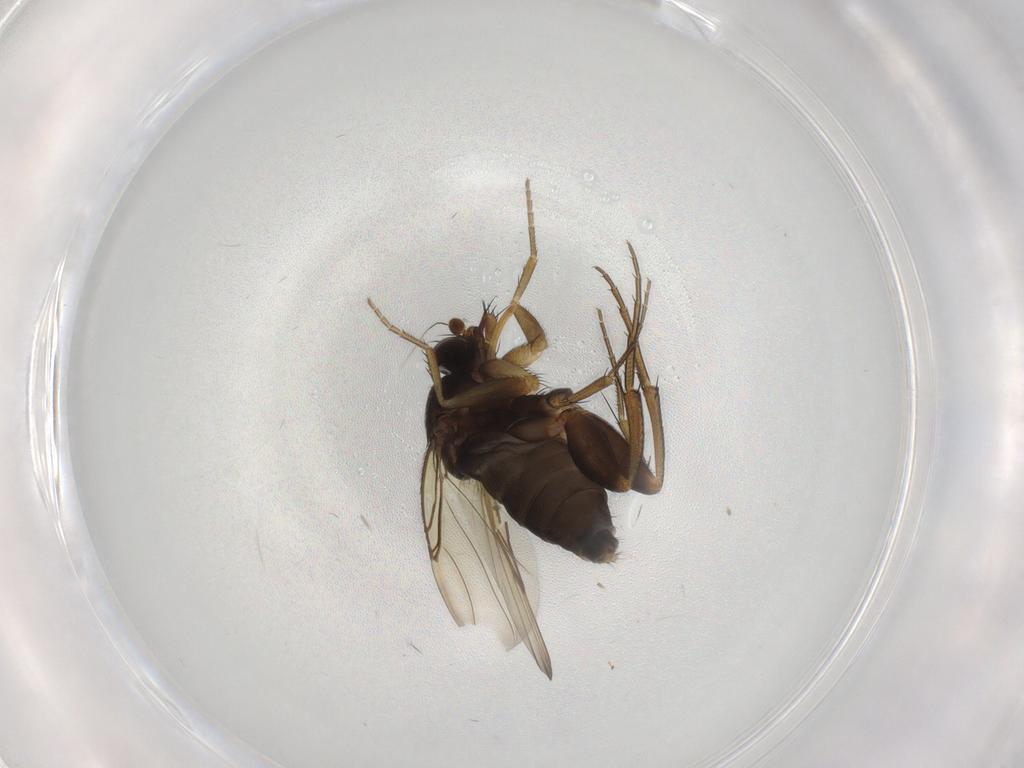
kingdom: Animalia
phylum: Arthropoda
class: Insecta
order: Diptera
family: Phoridae
